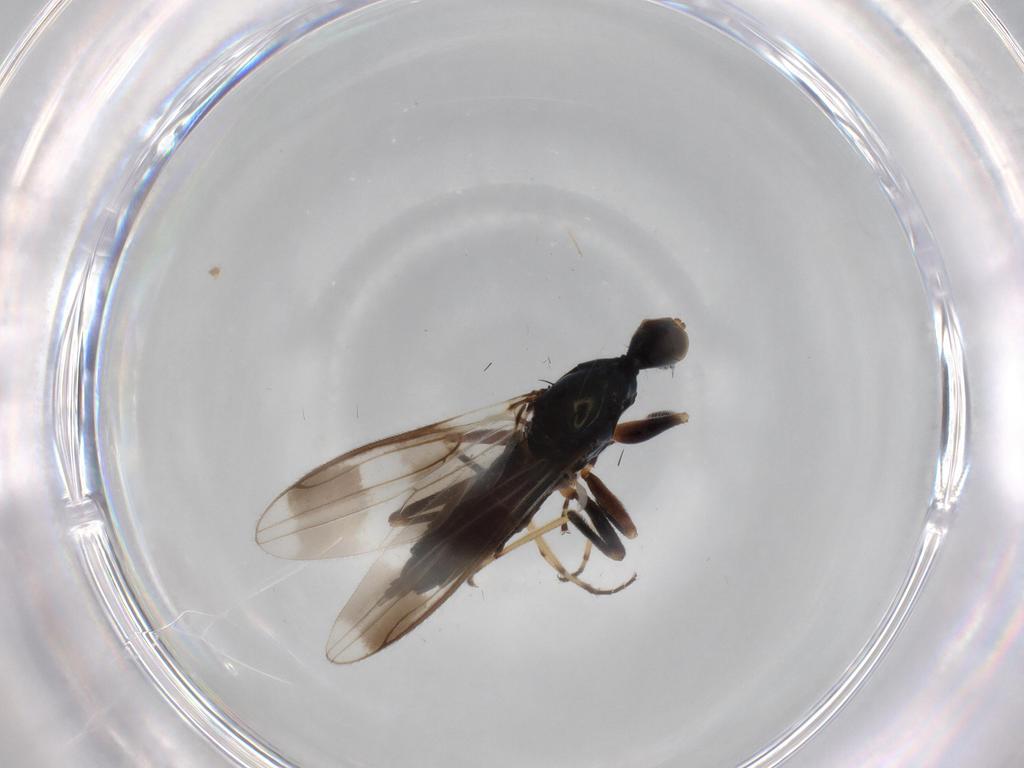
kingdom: Animalia
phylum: Arthropoda
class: Insecta
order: Diptera
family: Hybotidae
